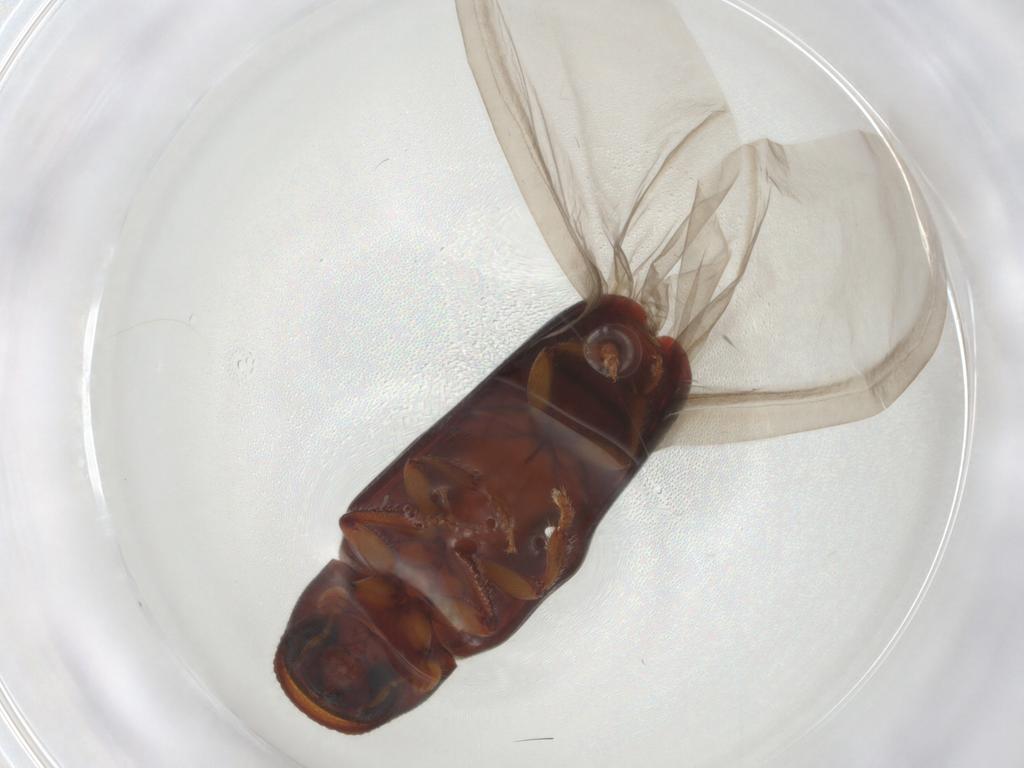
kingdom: Animalia
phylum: Arthropoda
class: Insecta
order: Coleoptera
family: Curculionidae
